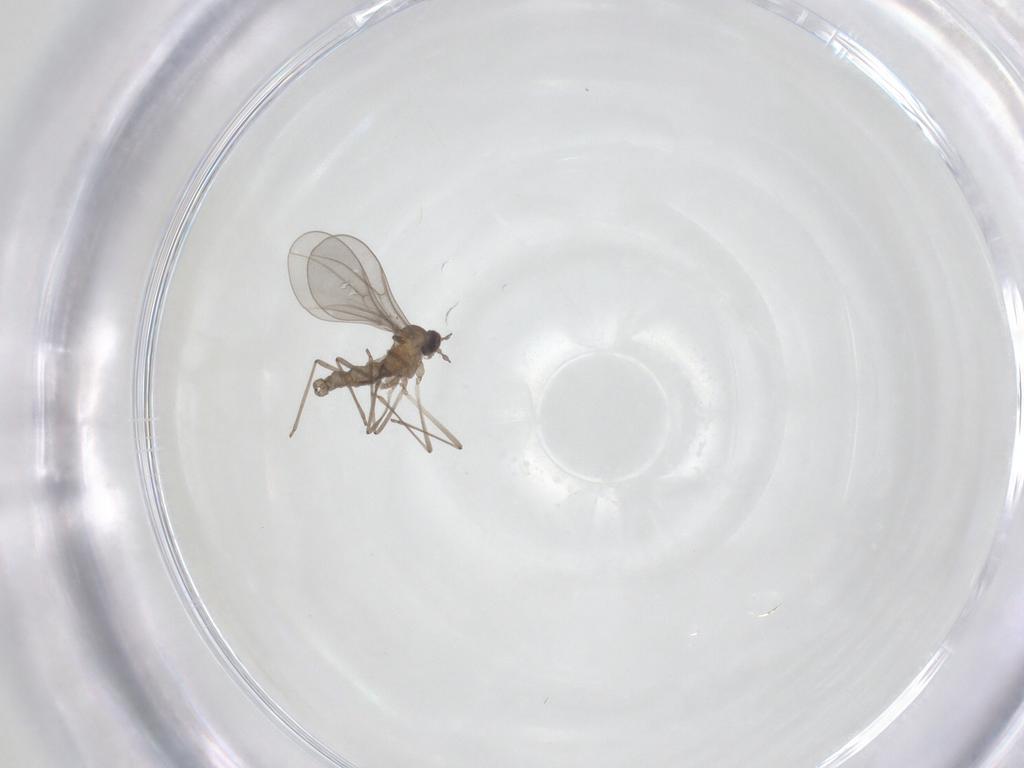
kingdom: Animalia
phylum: Arthropoda
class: Insecta
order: Diptera
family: Cecidomyiidae
